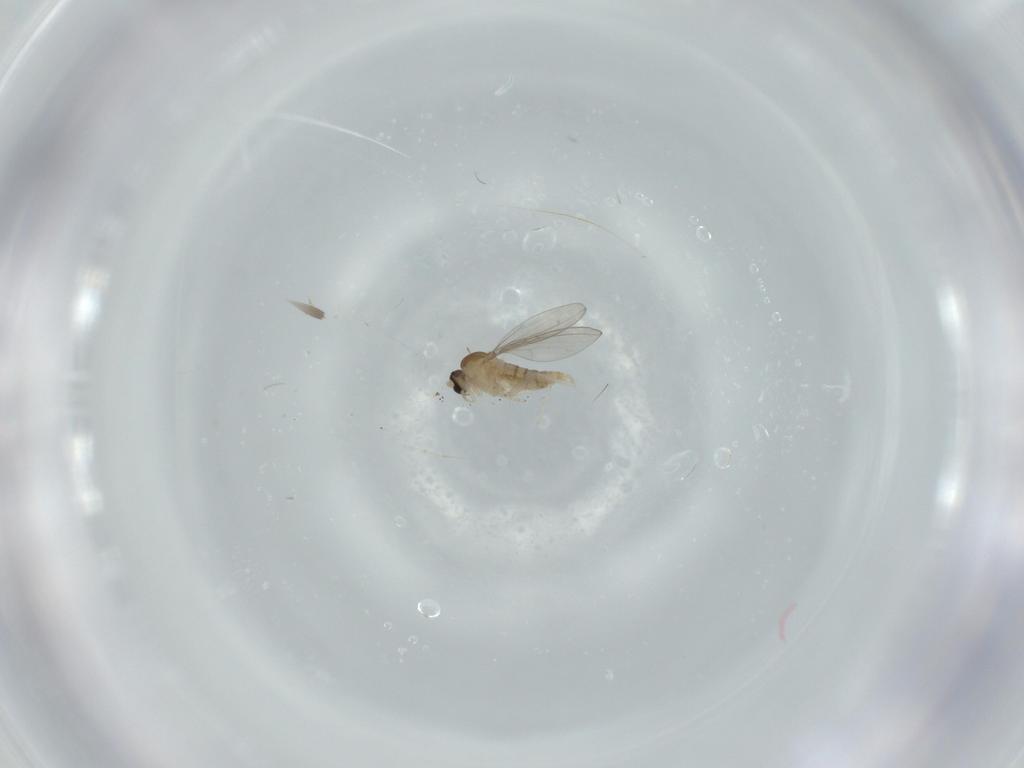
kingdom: Animalia
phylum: Arthropoda
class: Insecta
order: Diptera
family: Cecidomyiidae
